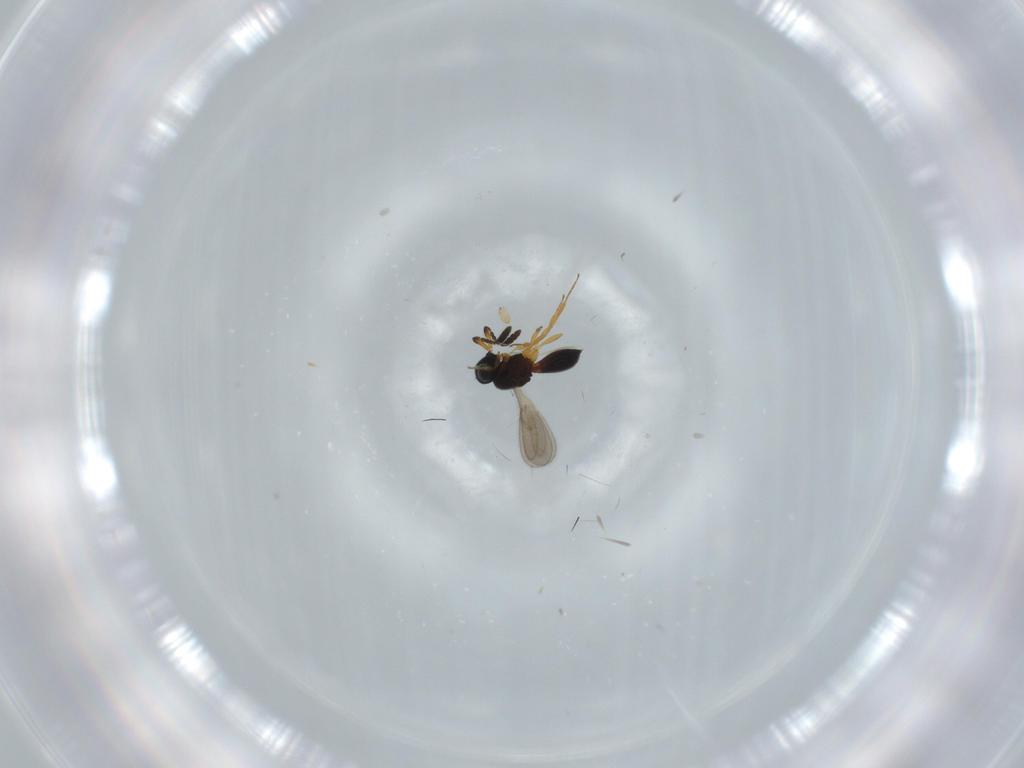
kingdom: Animalia
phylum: Arthropoda
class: Insecta
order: Hymenoptera
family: Scelionidae
